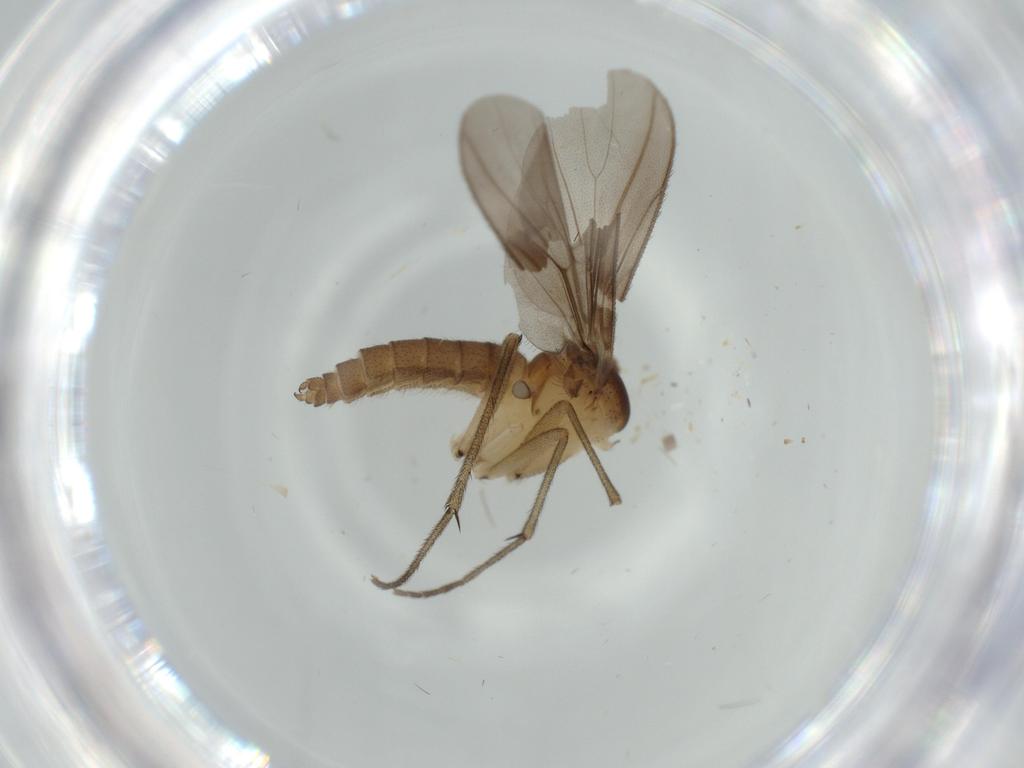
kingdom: Animalia
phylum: Arthropoda
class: Insecta
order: Diptera
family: Diadocidiidae
